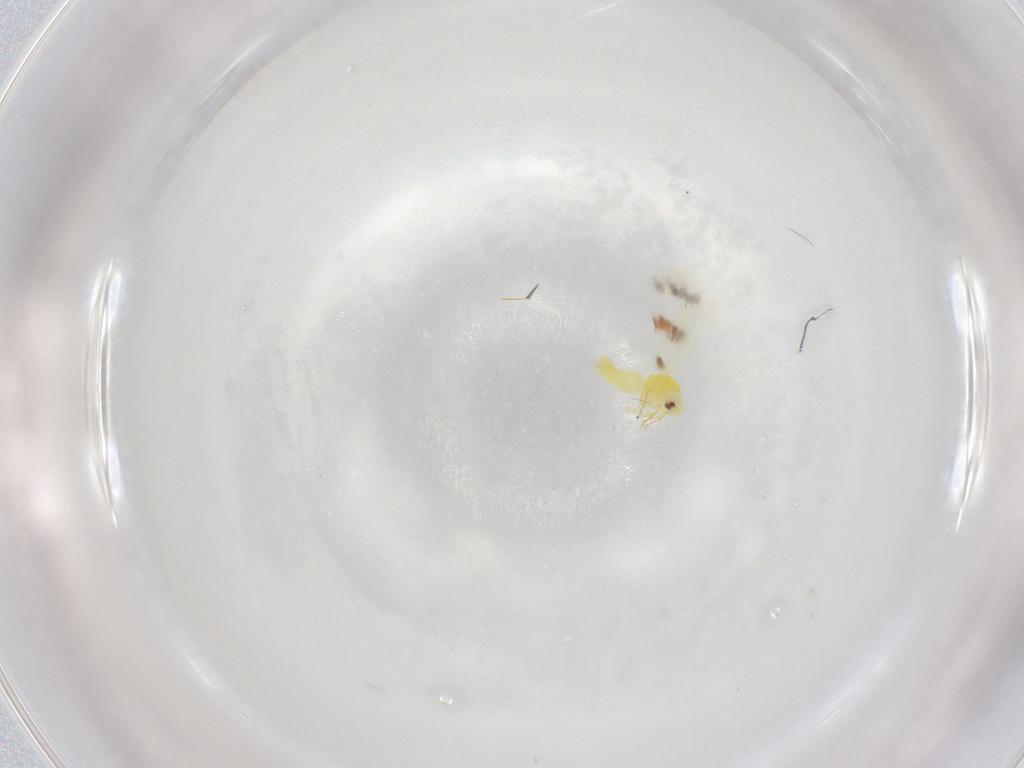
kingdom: Animalia
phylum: Arthropoda
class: Insecta
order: Hemiptera
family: Aleyrodidae
